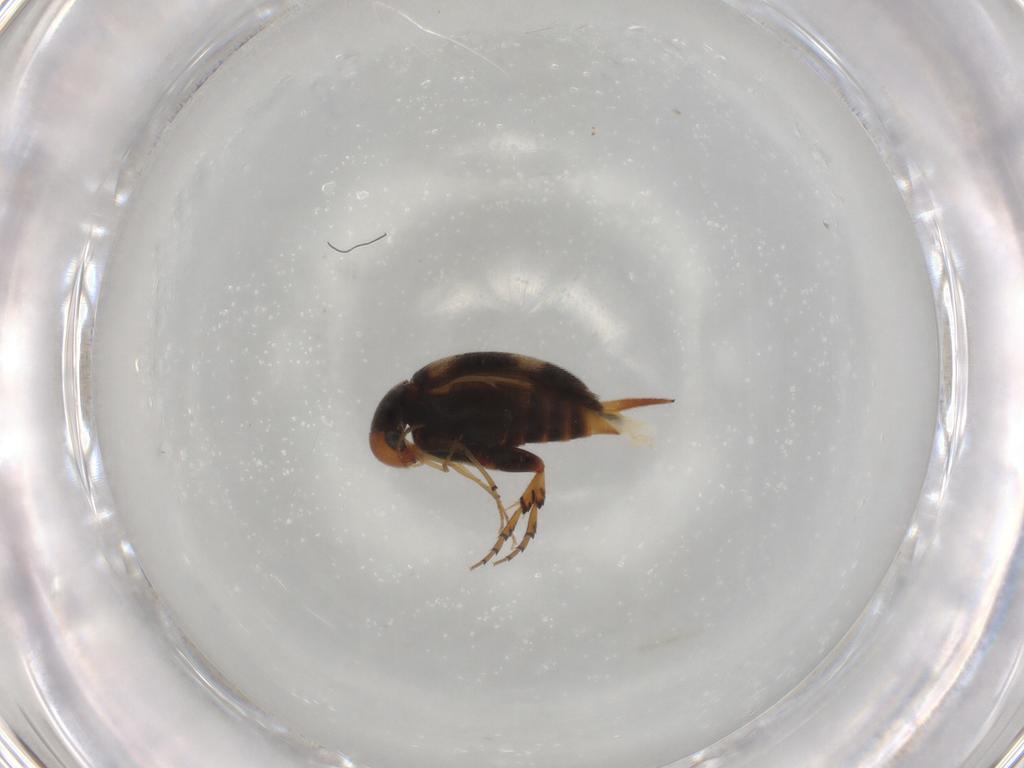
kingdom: Animalia
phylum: Arthropoda
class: Insecta
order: Coleoptera
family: Mordellidae
